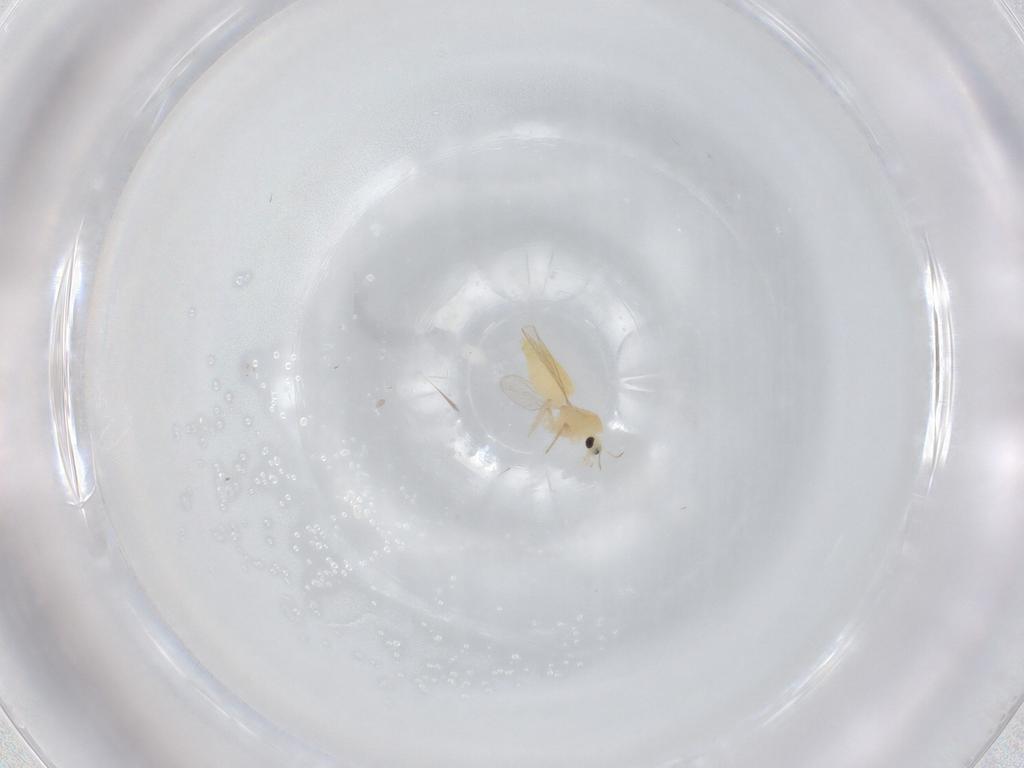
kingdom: Animalia
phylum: Arthropoda
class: Insecta
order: Diptera
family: Chironomidae
